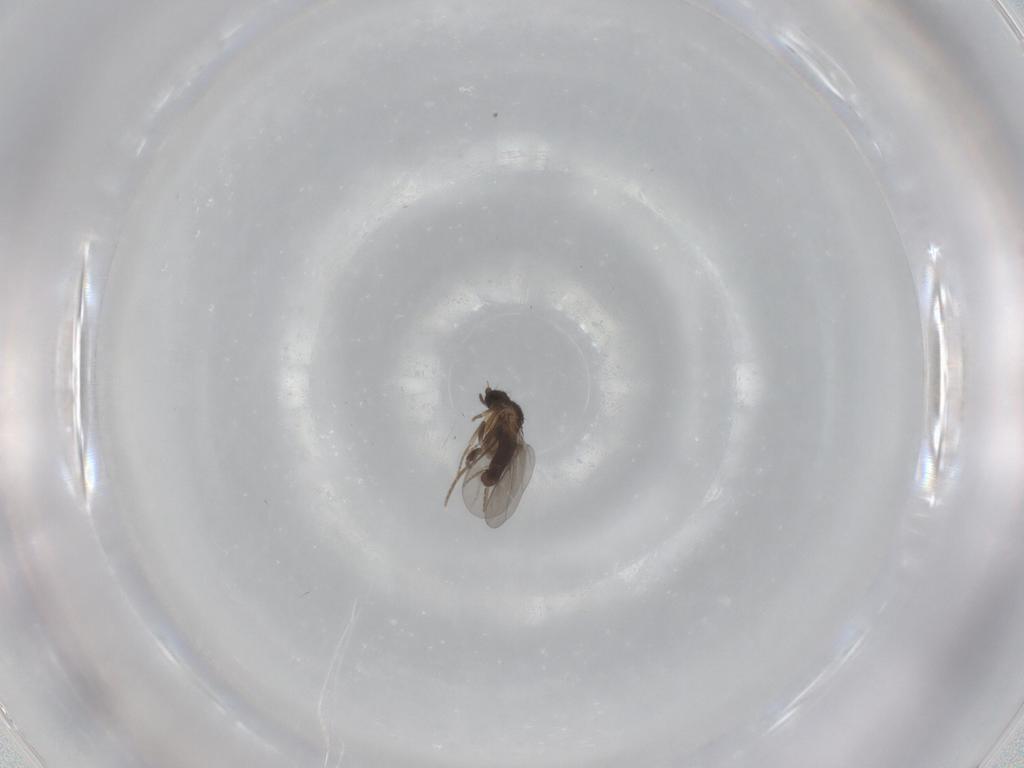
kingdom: Animalia
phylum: Arthropoda
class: Insecta
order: Diptera
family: Cecidomyiidae
